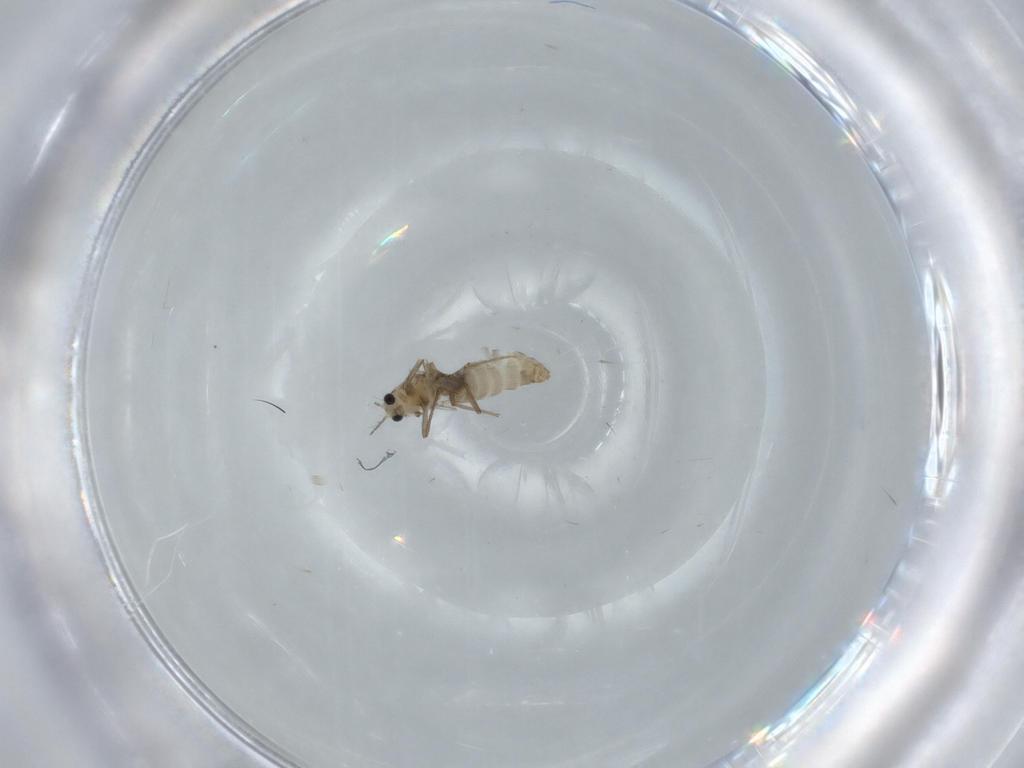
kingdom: Animalia
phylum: Arthropoda
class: Insecta
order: Diptera
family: Chironomidae
